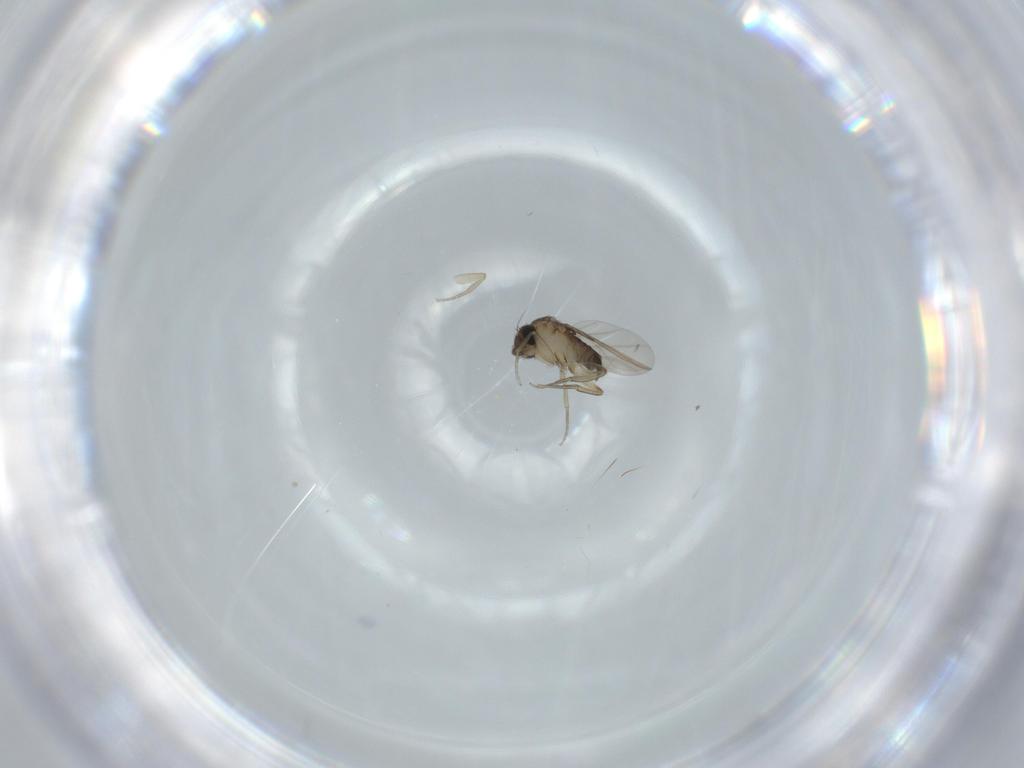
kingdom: Animalia
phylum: Arthropoda
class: Insecta
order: Diptera
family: Phoridae
